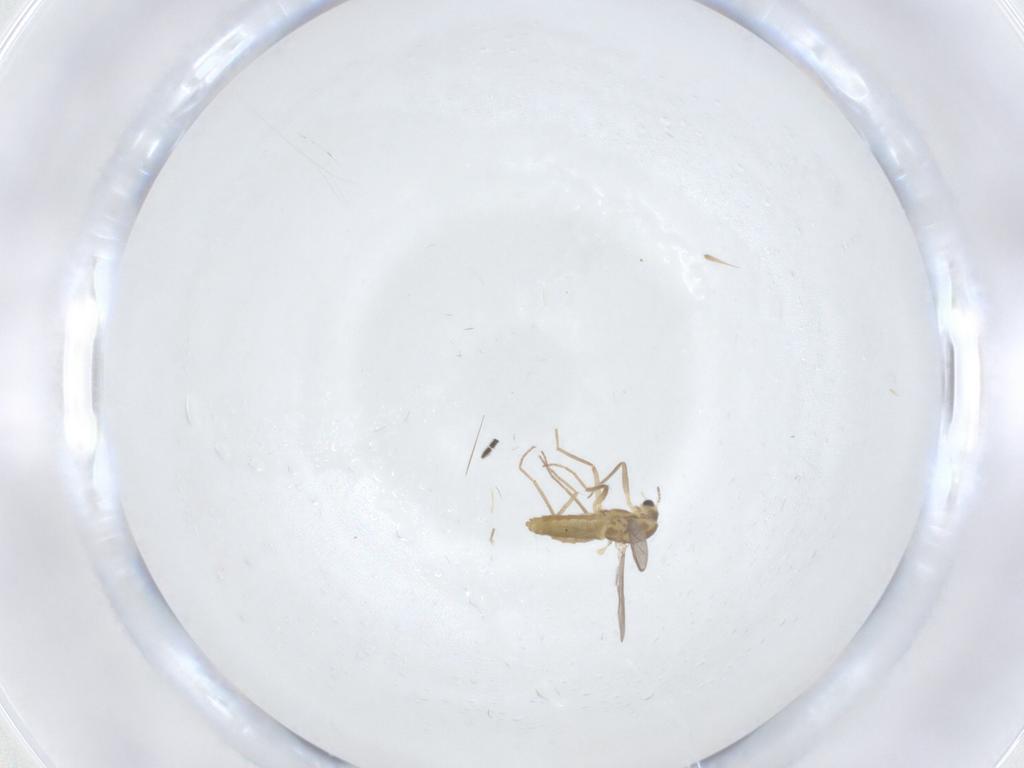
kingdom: Animalia
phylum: Arthropoda
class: Insecta
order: Diptera
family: Sciaridae
